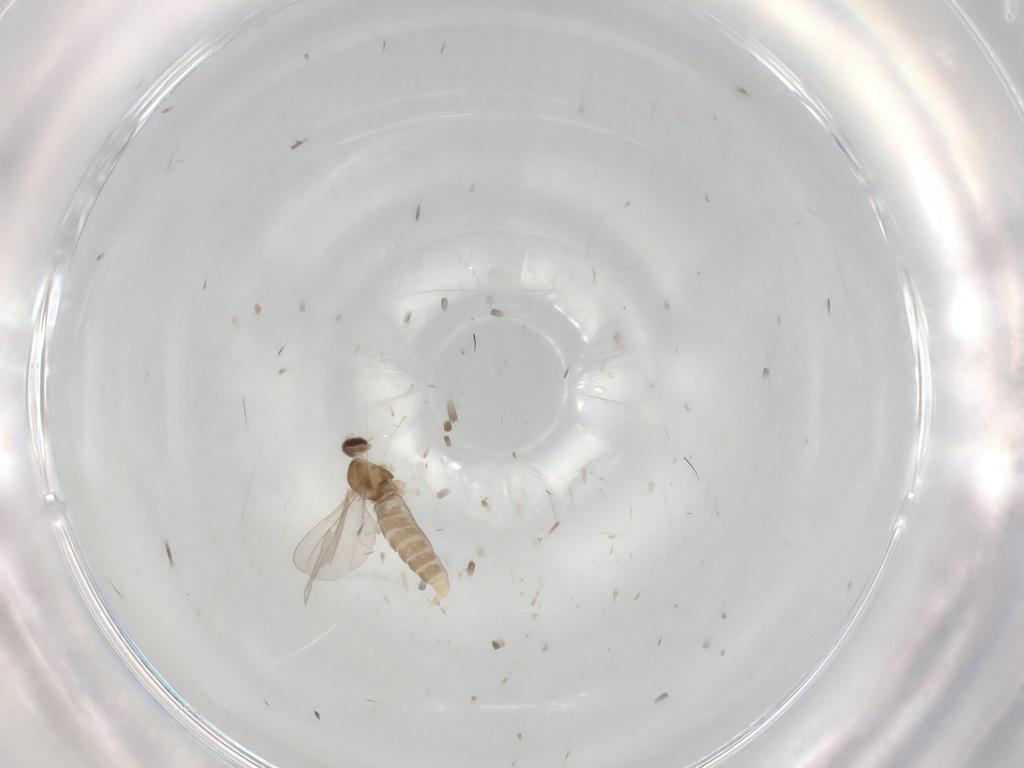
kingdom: Animalia
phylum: Arthropoda
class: Insecta
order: Diptera
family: Cecidomyiidae
